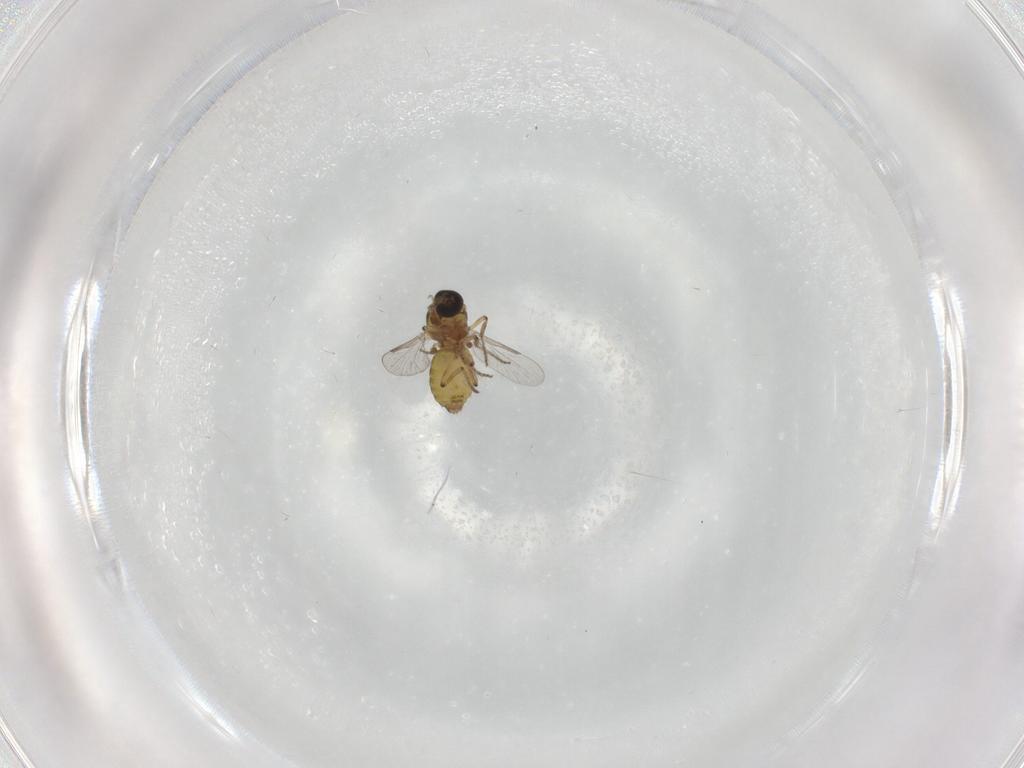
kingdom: Animalia
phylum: Arthropoda
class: Insecta
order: Diptera
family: Ceratopogonidae
